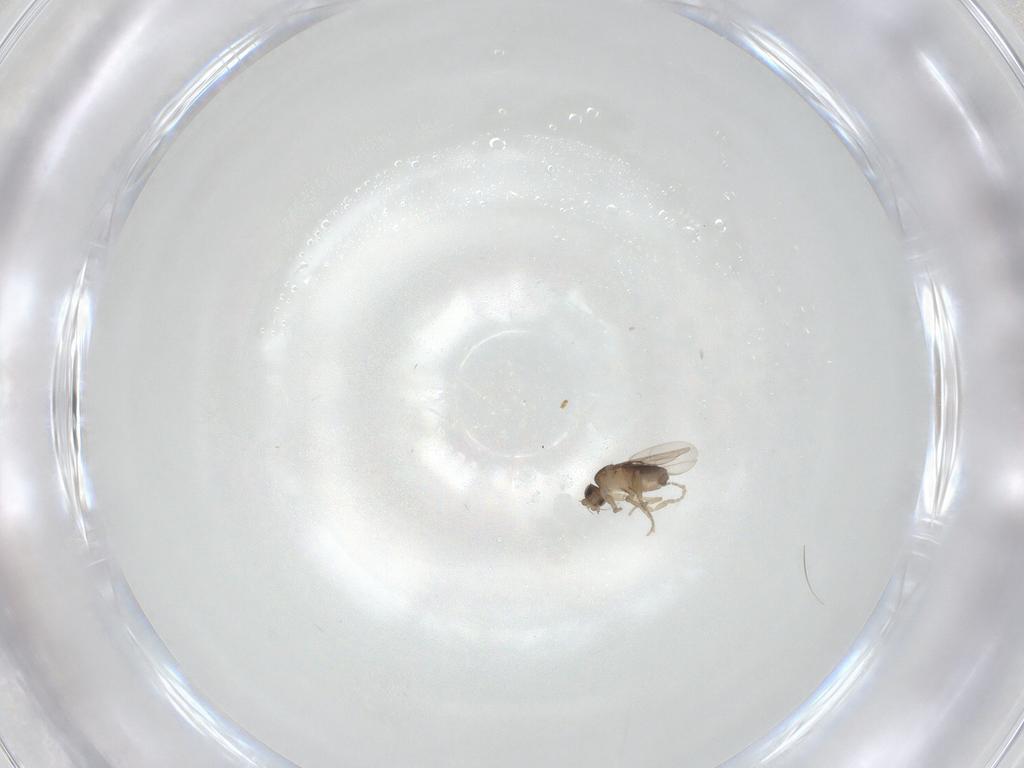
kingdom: Animalia
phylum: Arthropoda
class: Insecta
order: Diptera
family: Phoridae
